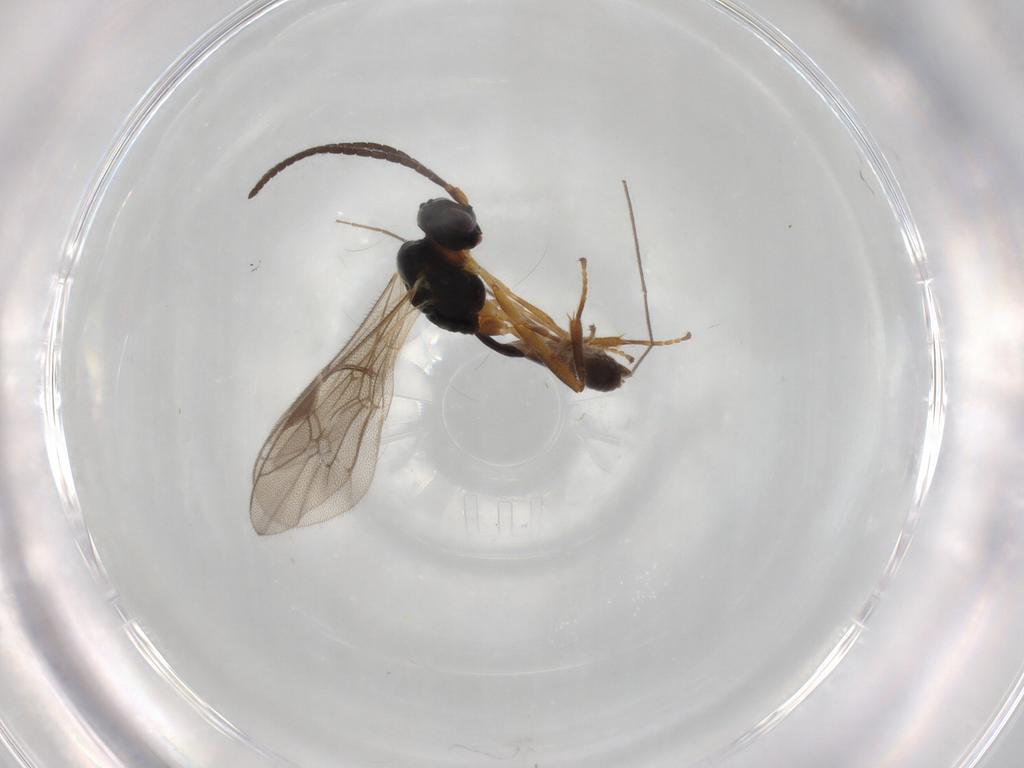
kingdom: Animalia
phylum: Arthropoda
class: Insecta
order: Hymenoptera
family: Ichneumonidae
